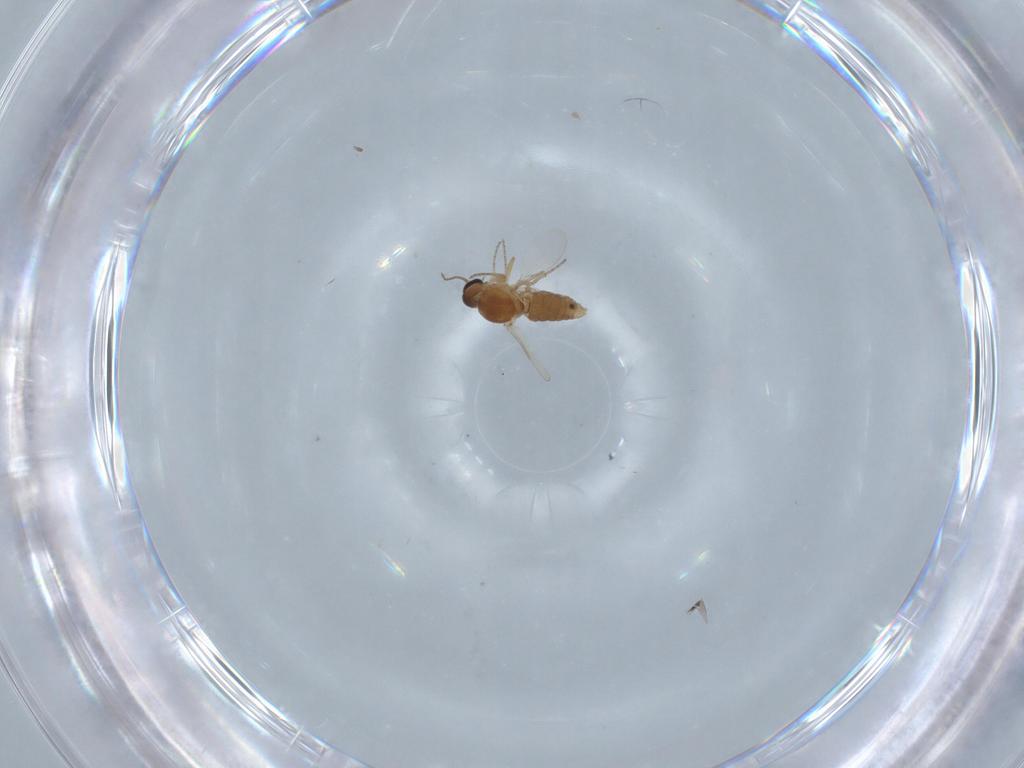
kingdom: Animalia
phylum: Arthropoda
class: Insecta
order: Diptera
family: Ceratopogonidae
